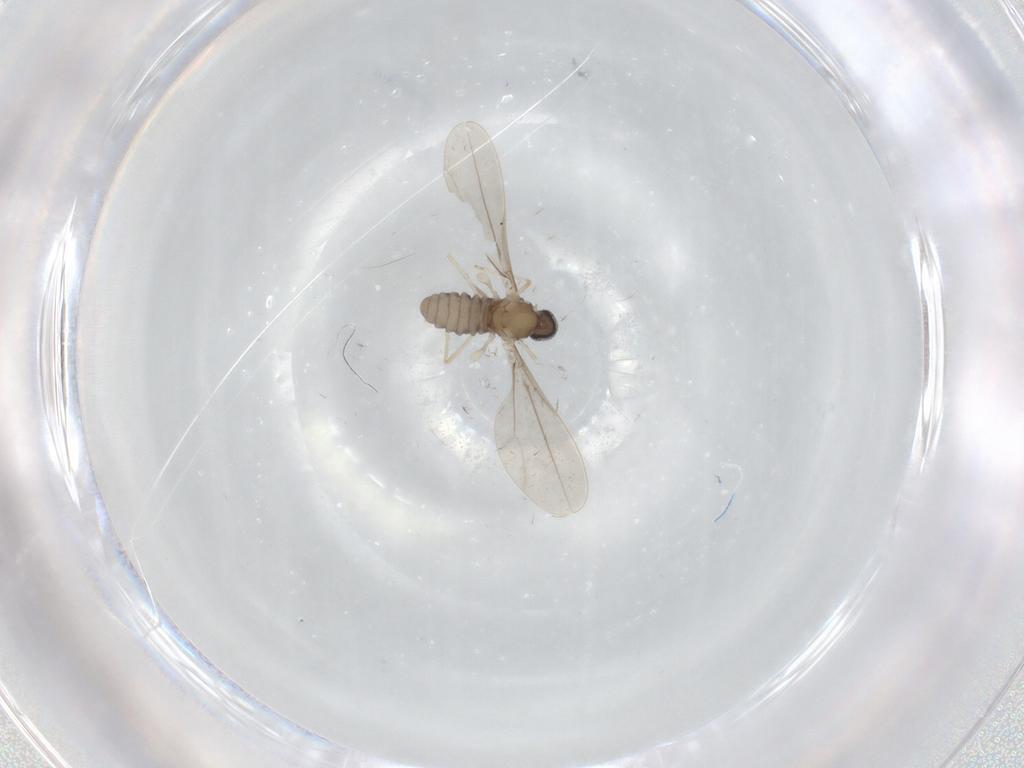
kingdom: Animalia
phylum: Arthropoda
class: Insecta
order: Diptera
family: Cecidomyiidae
